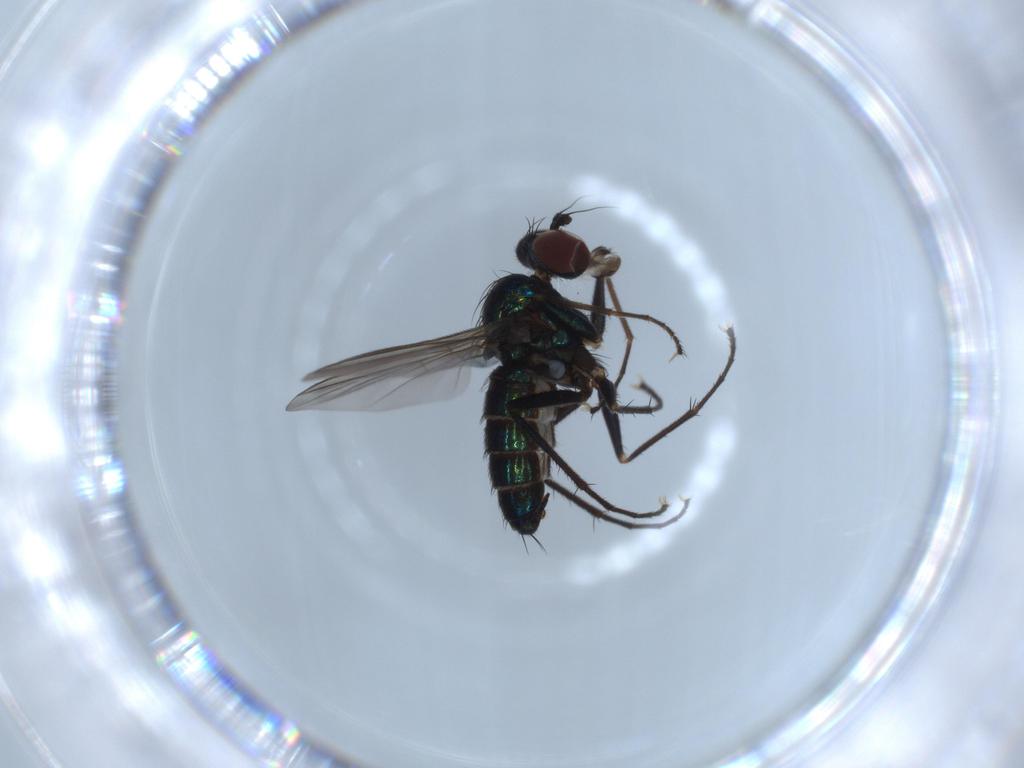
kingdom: Animalia
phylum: Arthropoda
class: Insecta
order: Diptera
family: Dolichopodidae
